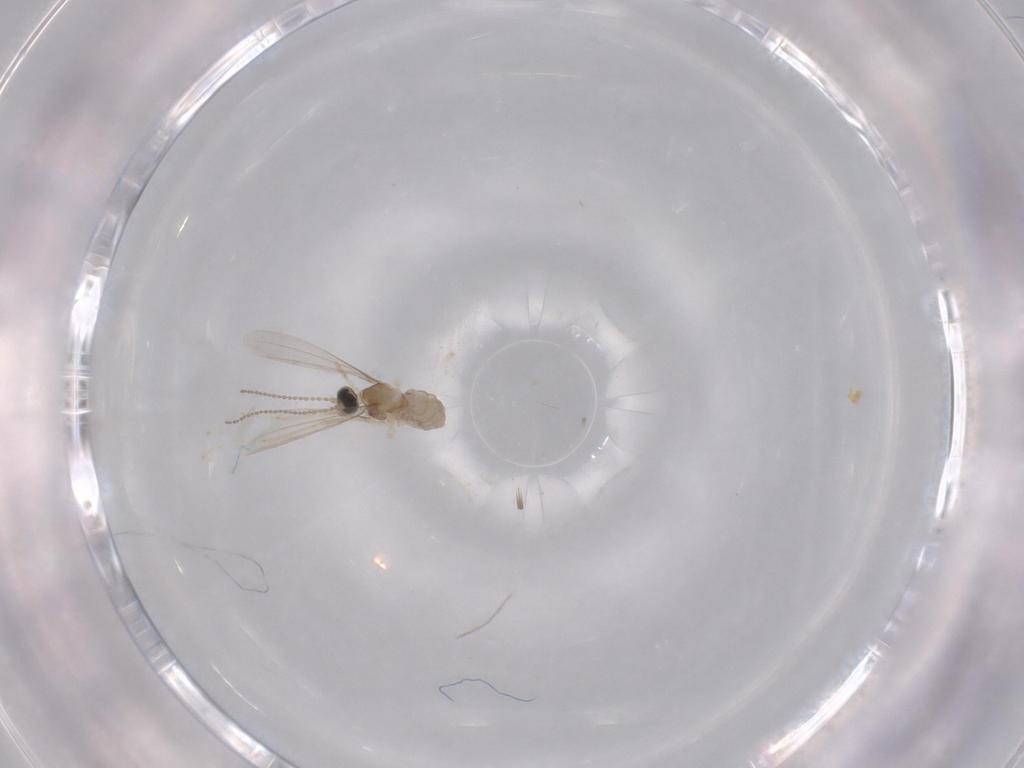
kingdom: Animalia
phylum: Arthropoda
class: Insecta
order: Diptera
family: Cecidomyiidae
